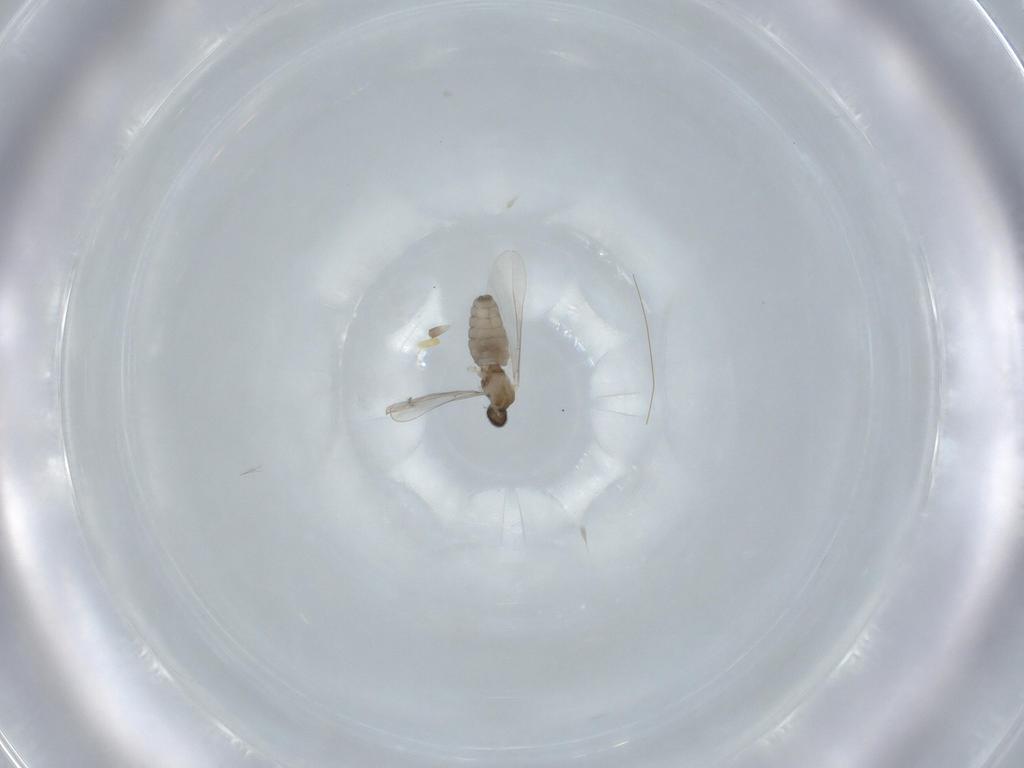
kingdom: Animalia
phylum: Arthropoda
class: Insecta
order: Diptera
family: Cecidomyiidae
